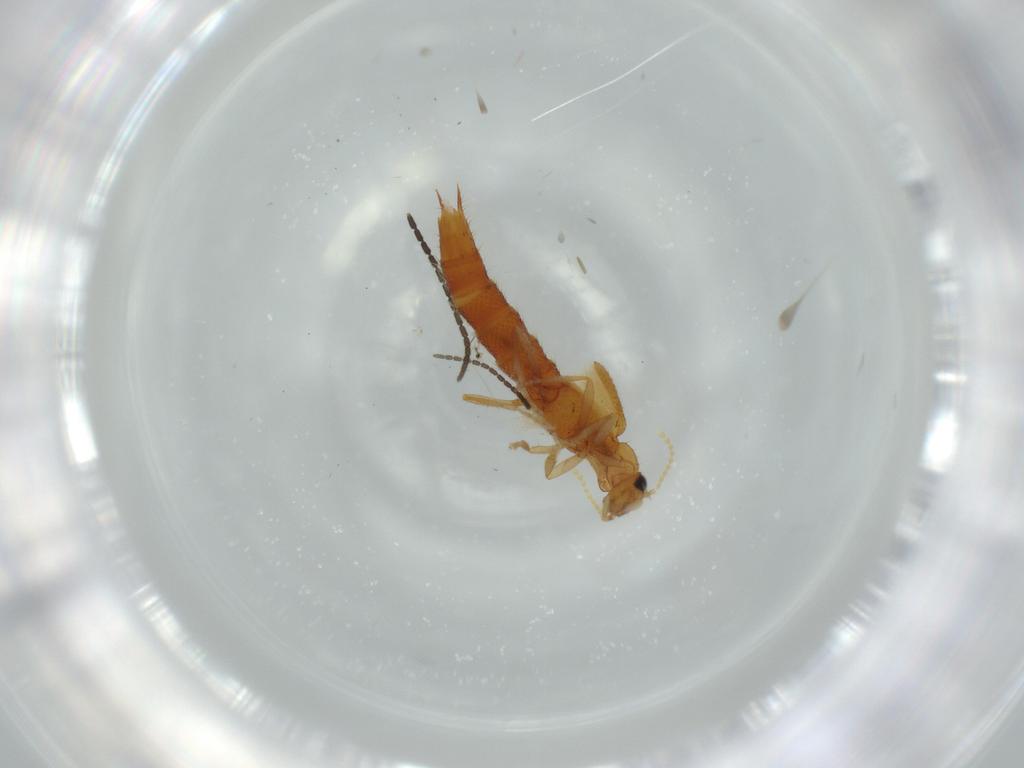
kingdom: Animalia
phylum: Arthropoda
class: Insecta
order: Coleoptera
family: Staphylinidae
